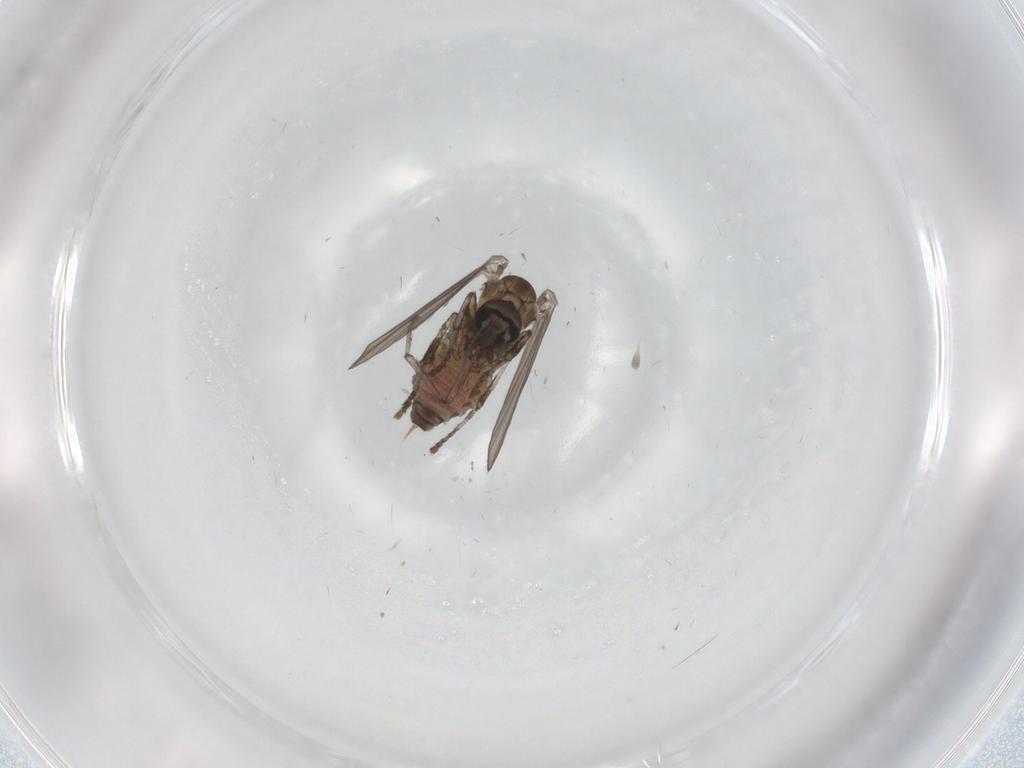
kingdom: Animalia
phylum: Arthropoda
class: Insecta
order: Diptera
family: Psychodidae
